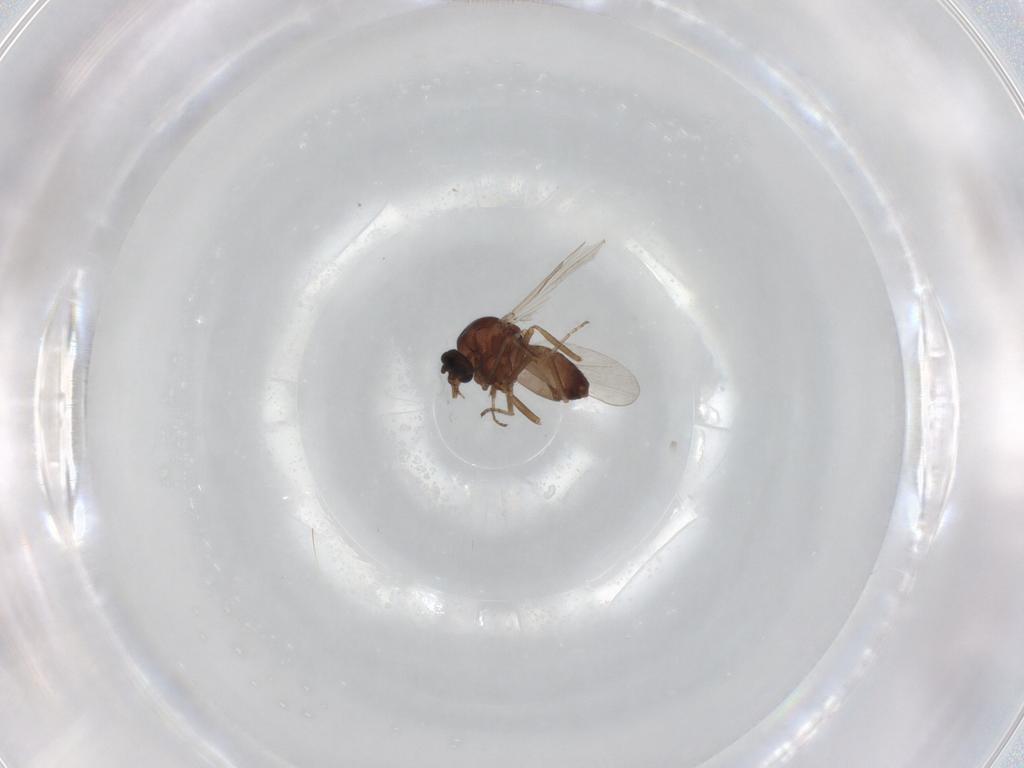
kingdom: Animalia
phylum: Arthropoda
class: Insecta
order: Diptera
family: Ceratopogonidae
